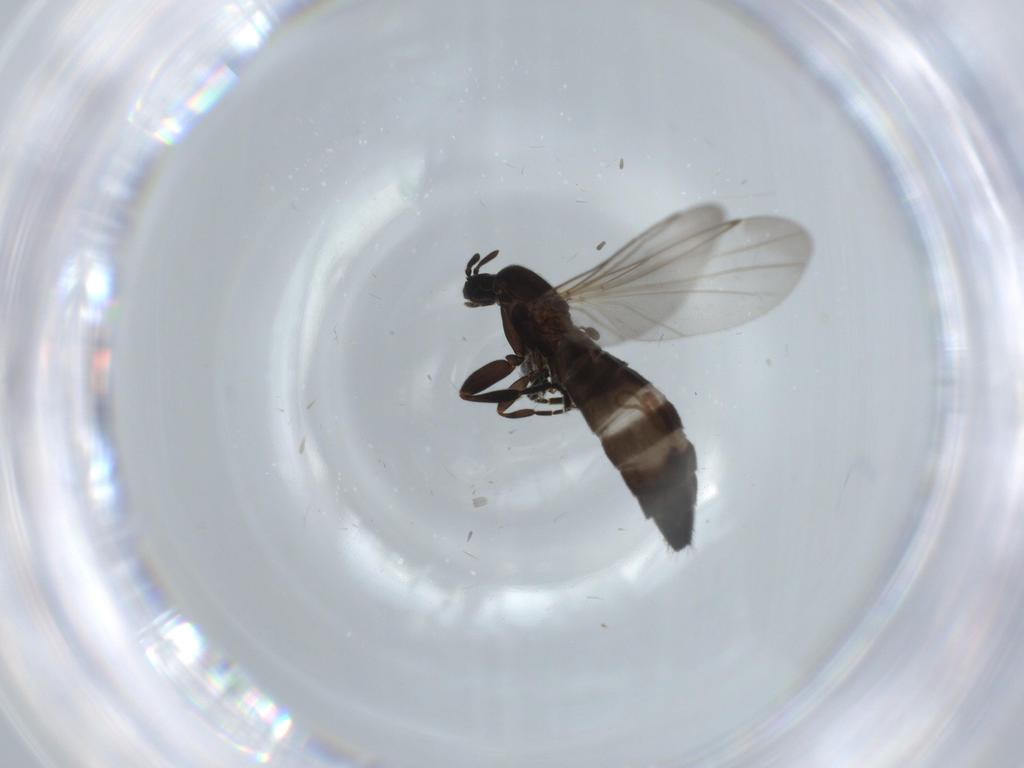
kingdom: Animalia
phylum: Arthropoda
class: Insecta
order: Diptera
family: Scatopsidae
